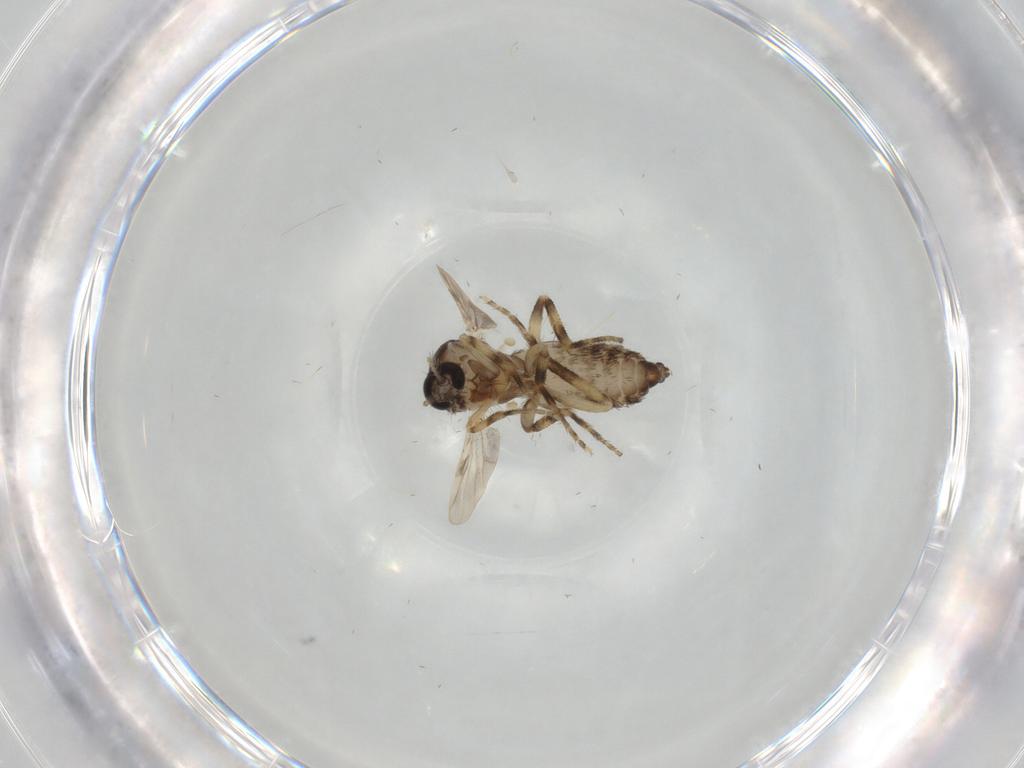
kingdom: Animalia
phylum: Arthropoda
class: Insecta
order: Diptera
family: Ceratopogonidae
